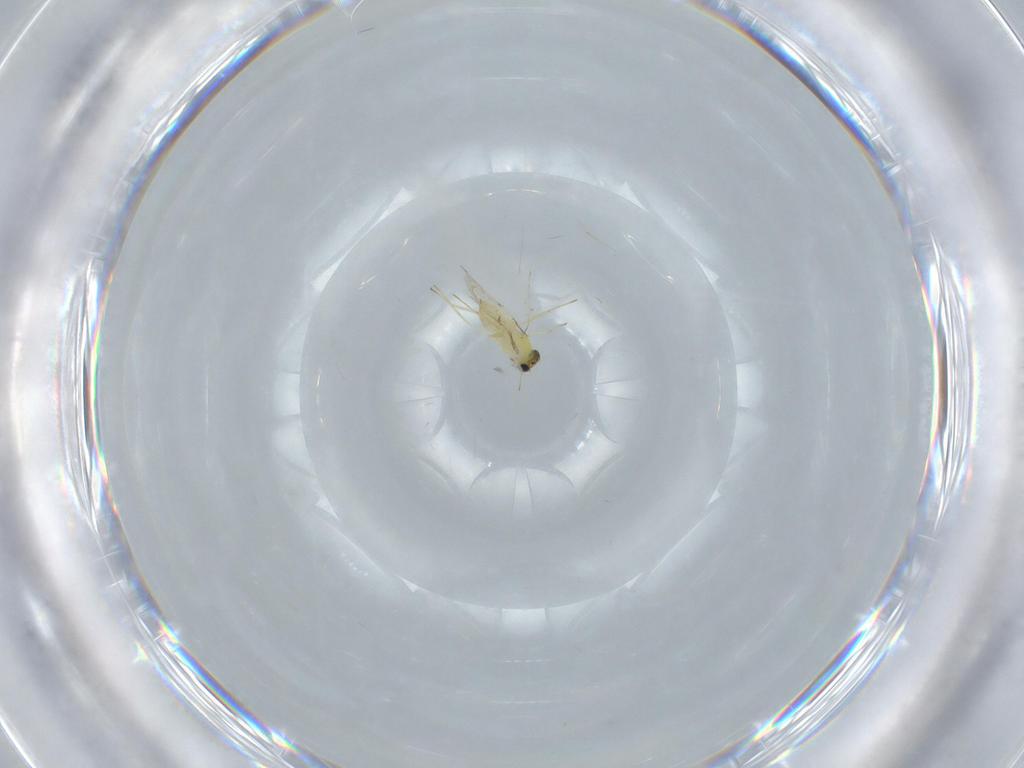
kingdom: Animalia
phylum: Arthropoda
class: Insecta
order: Hymenoptera
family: Trichogrammatidae
